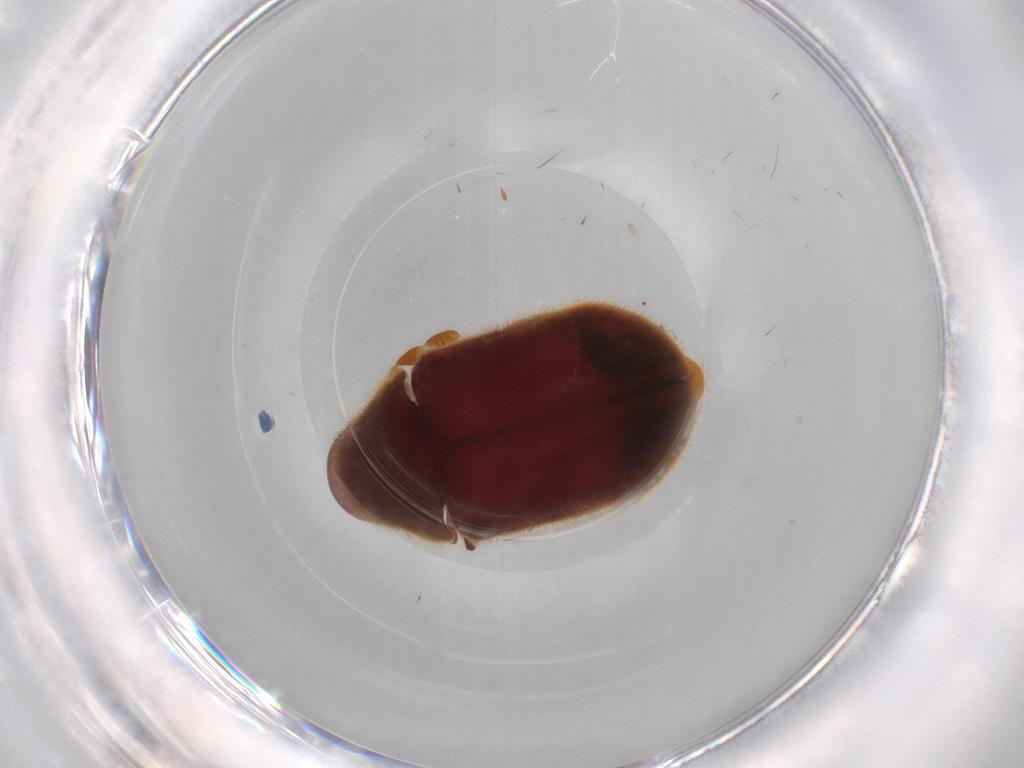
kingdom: Animalia
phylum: Arthropoda
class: Insecta
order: Coleoptera
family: Ptinidae
